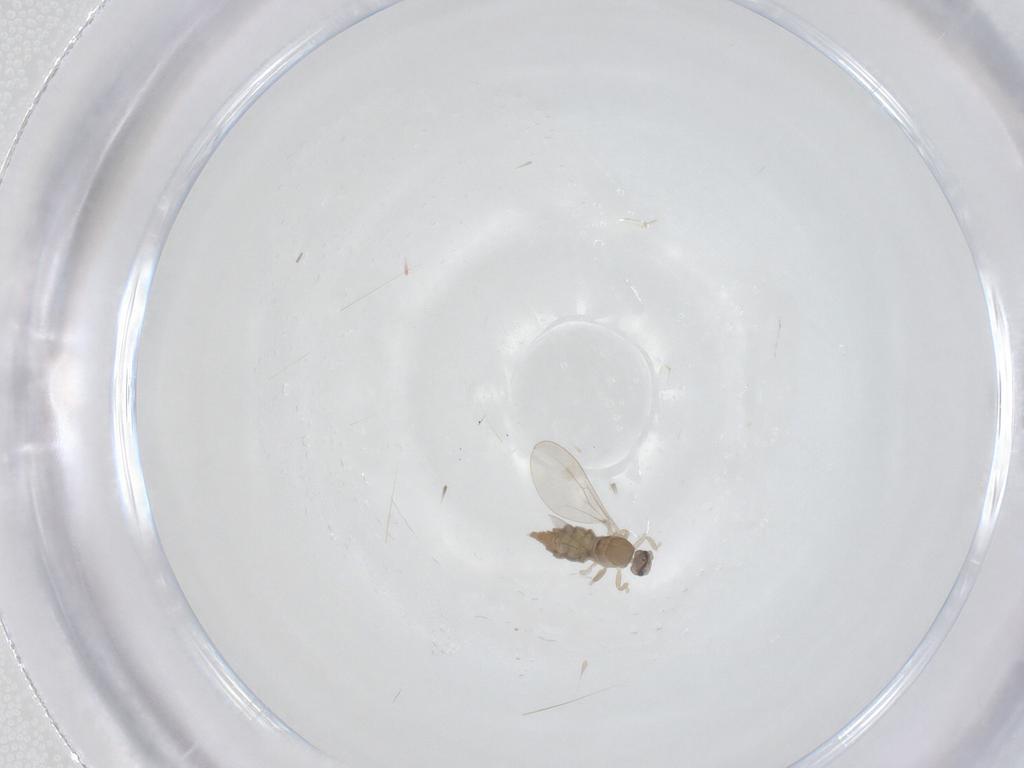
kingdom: Animalia
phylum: Arthropoda
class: Insecta
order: Diptera
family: Cecidomyiidae
